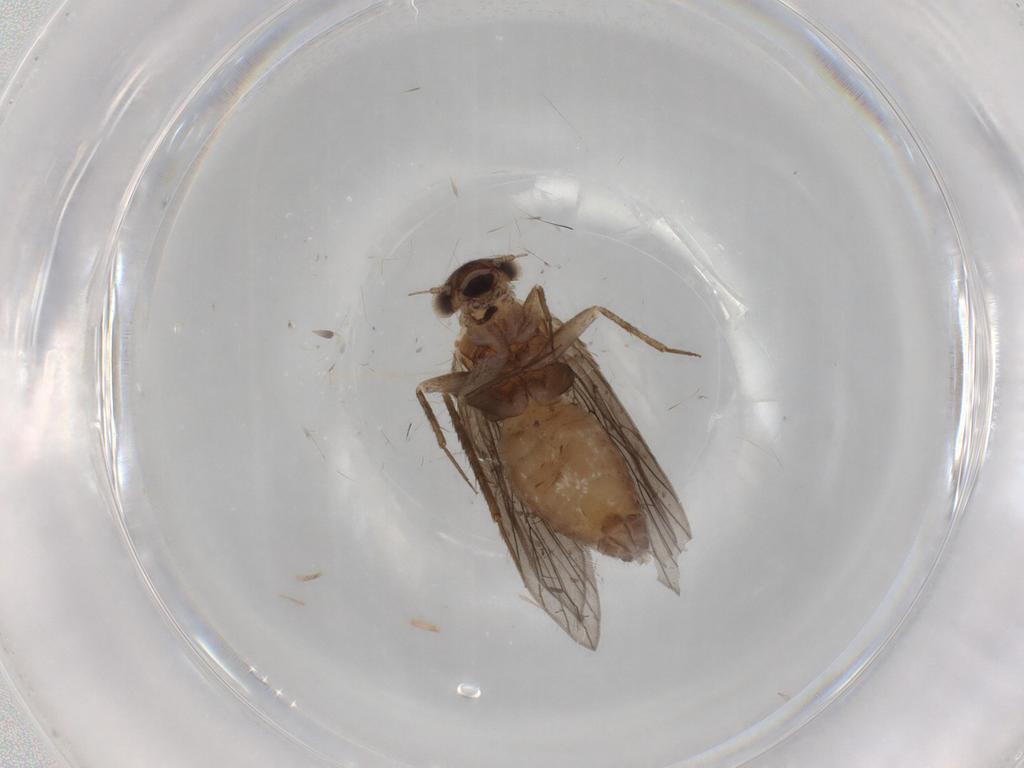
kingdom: Animalia
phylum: Arthropoda
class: Insecta
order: Psocodea
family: Lepidopsocidae
